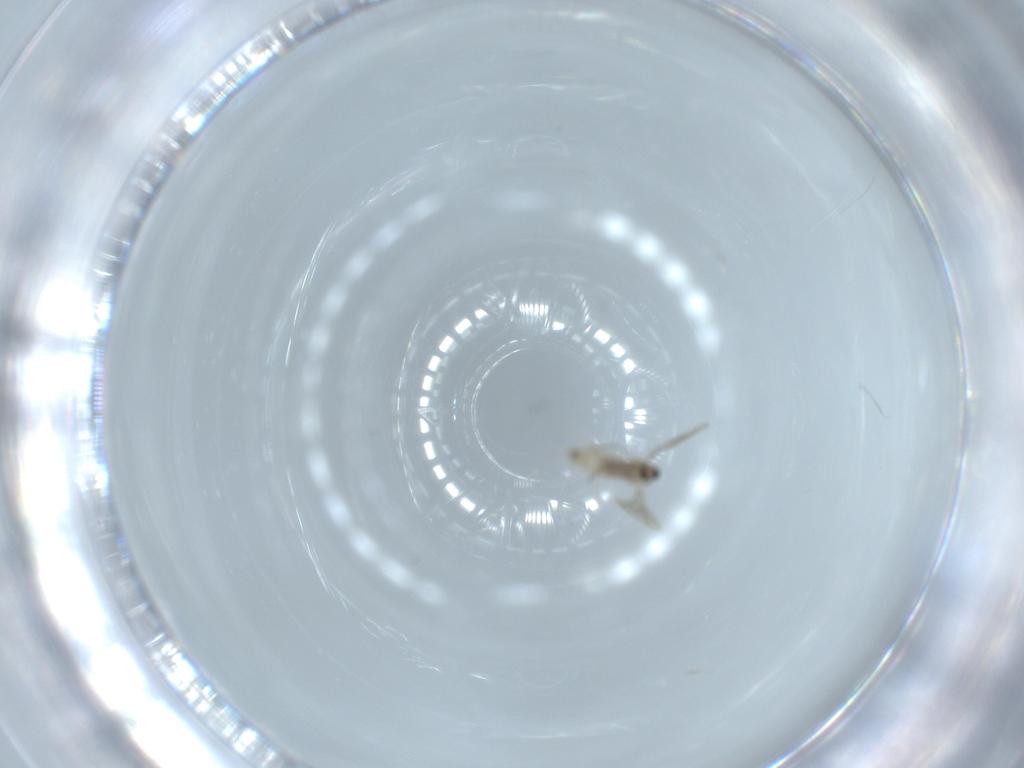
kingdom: Animalia
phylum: Arthropoda
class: Insecta
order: Diptera
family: Cecidomyiidae
